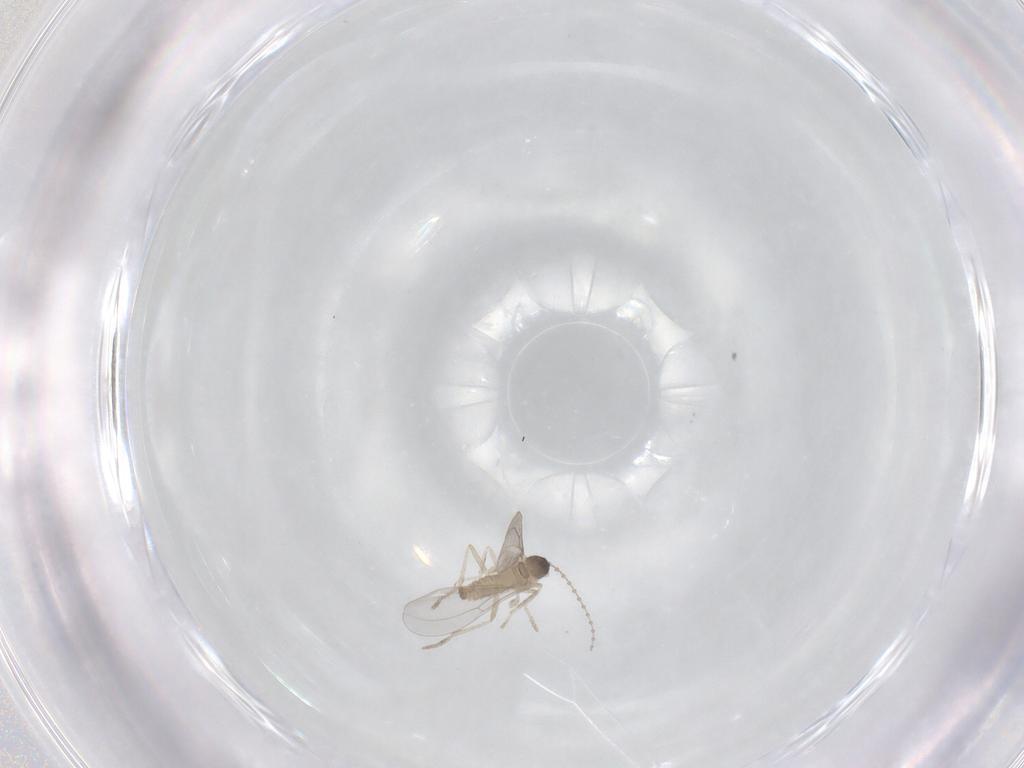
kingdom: Animalia
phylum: Arthropoda
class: Insecta
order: Diptera
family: Cecidomyiidae
